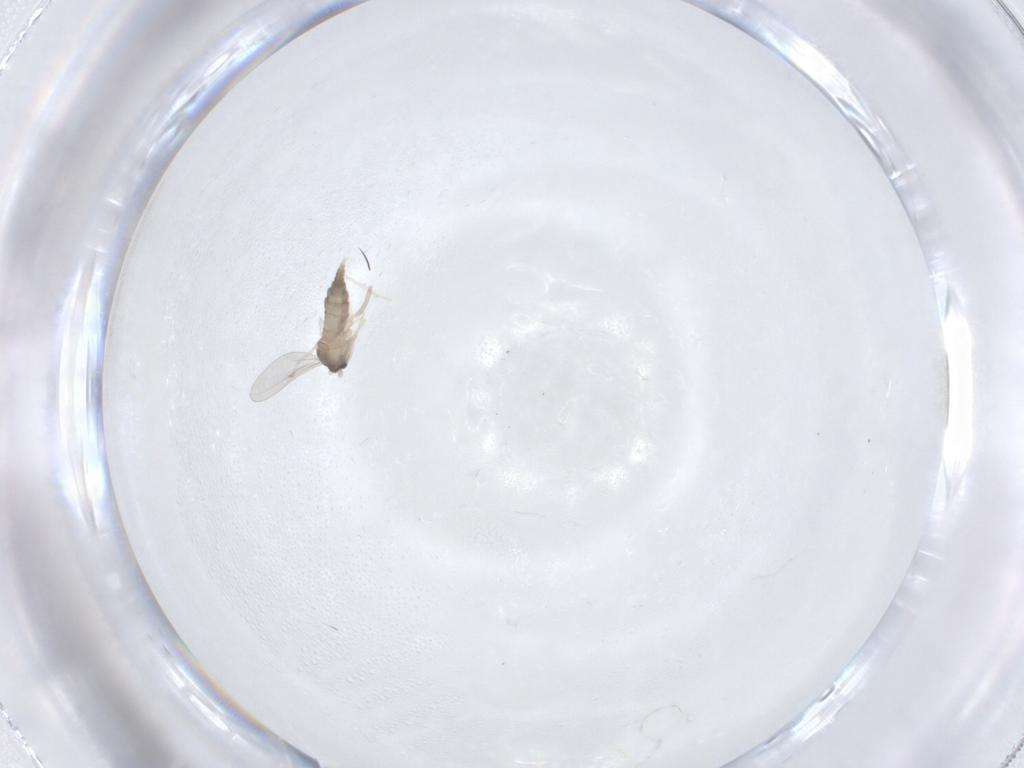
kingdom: Animalia
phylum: Arthropoda
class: Insecta
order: Diptera
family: Cecidomyiidae
